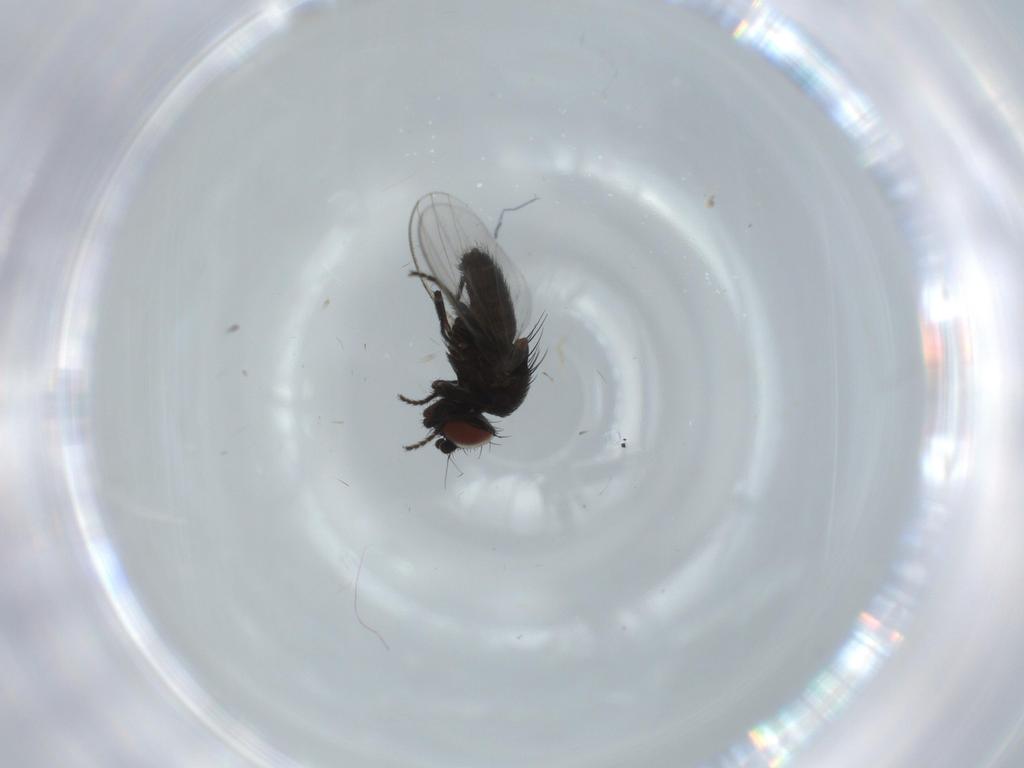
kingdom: Animalia
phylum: Arthropoda
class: Insecta
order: Diptera
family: Milichiidae
